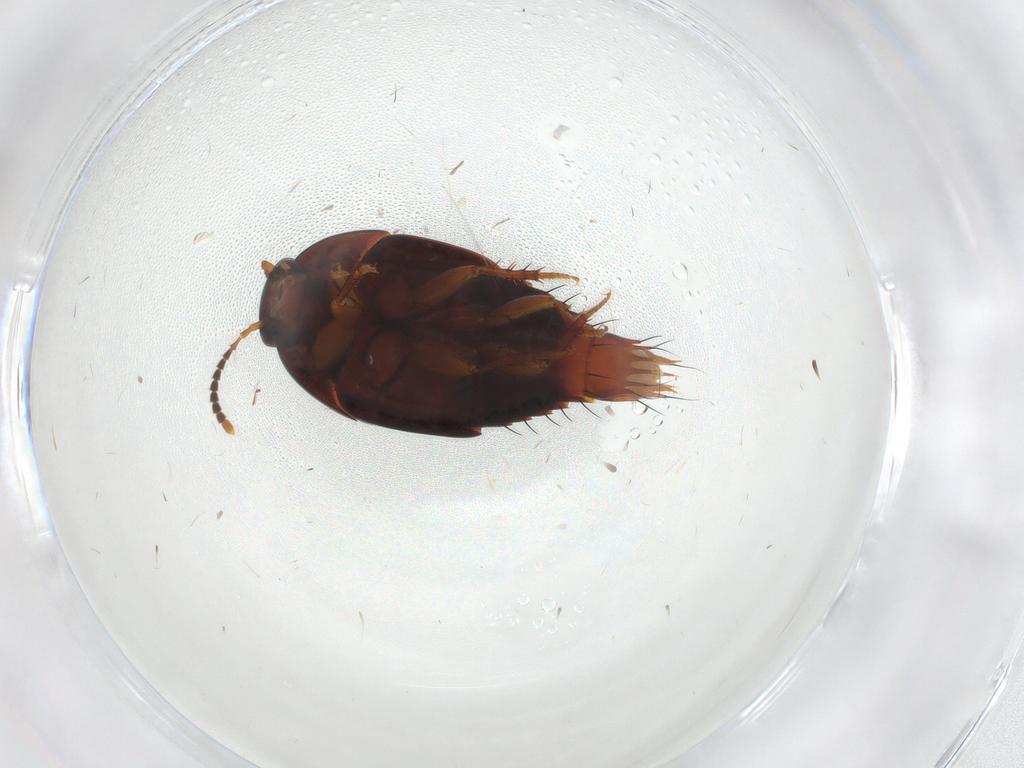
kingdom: Animalia
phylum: Arthropoda
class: Insecta
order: Coleoptera
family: Staphylinidae
